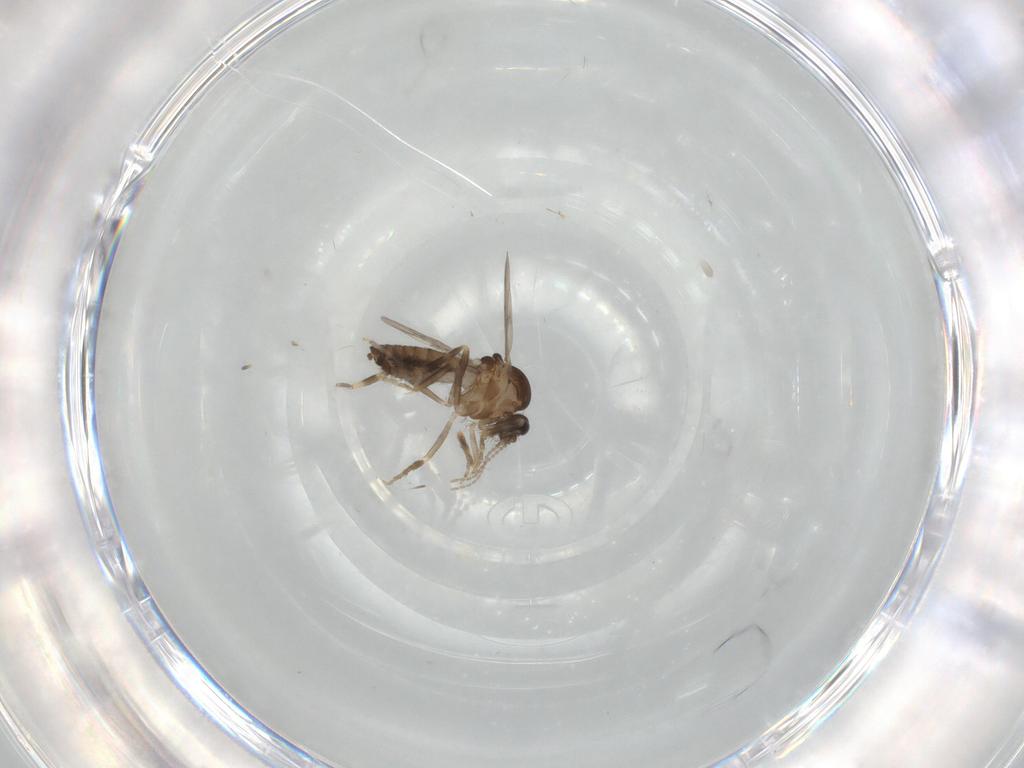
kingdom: Animalia
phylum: Arthropoda
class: Insecta
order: Diptera
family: Ceratopogonidae
